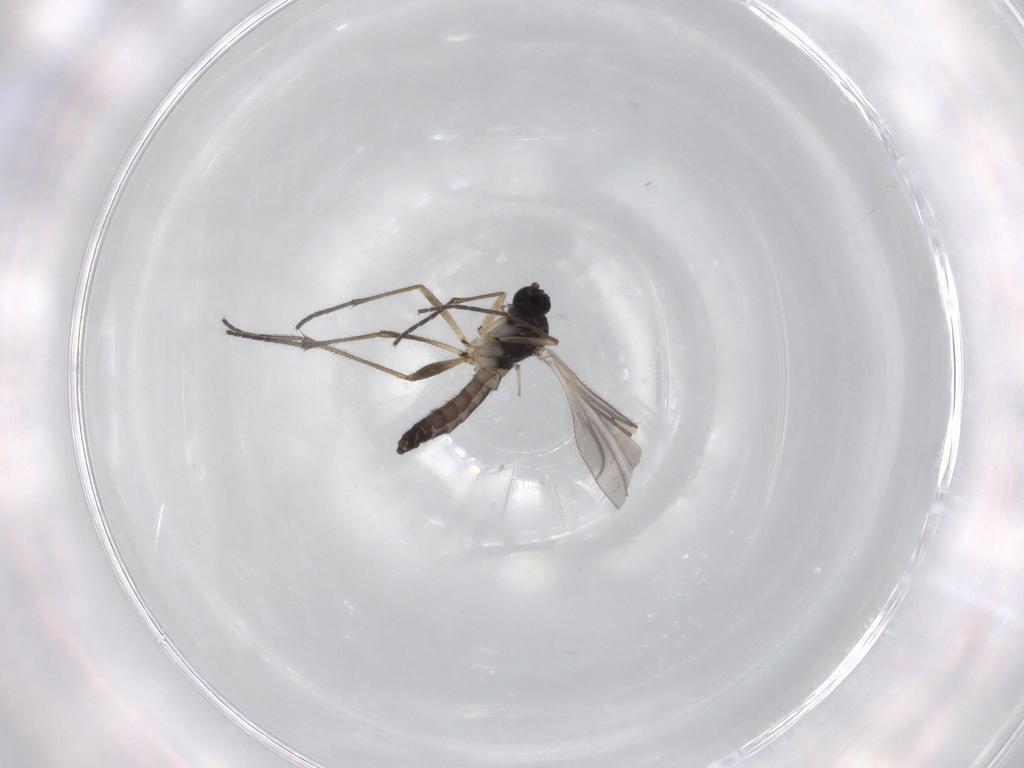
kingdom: Animalia
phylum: Arthropoda
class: Insecta
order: Diptera
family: Sciaridae
